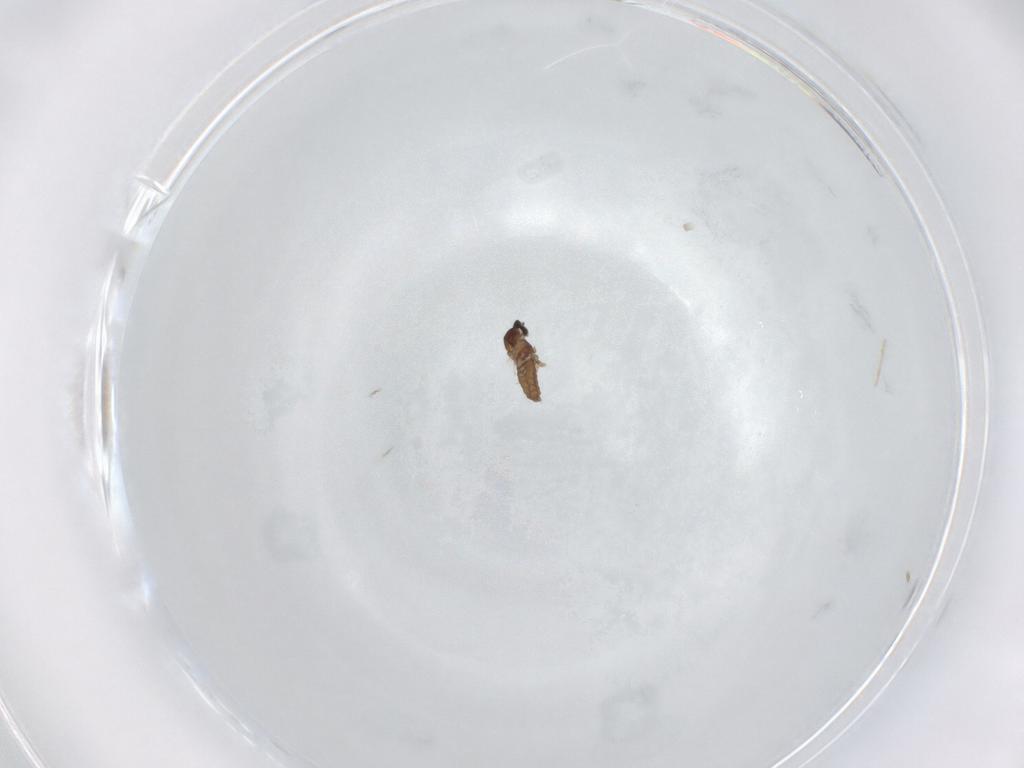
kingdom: Animalia
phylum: Arthropoda
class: Insecta
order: Diptera
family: Cecidomyiidae
